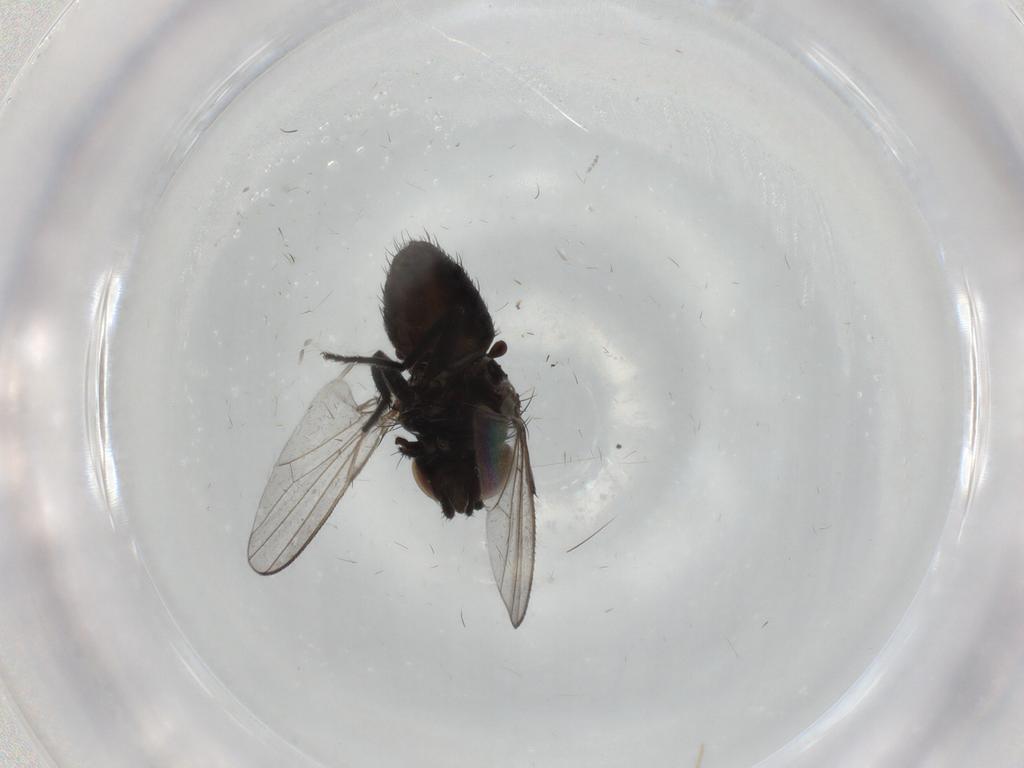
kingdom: Animalia
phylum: Arthropoda
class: Insecta
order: Diptera
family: Milichiidae
